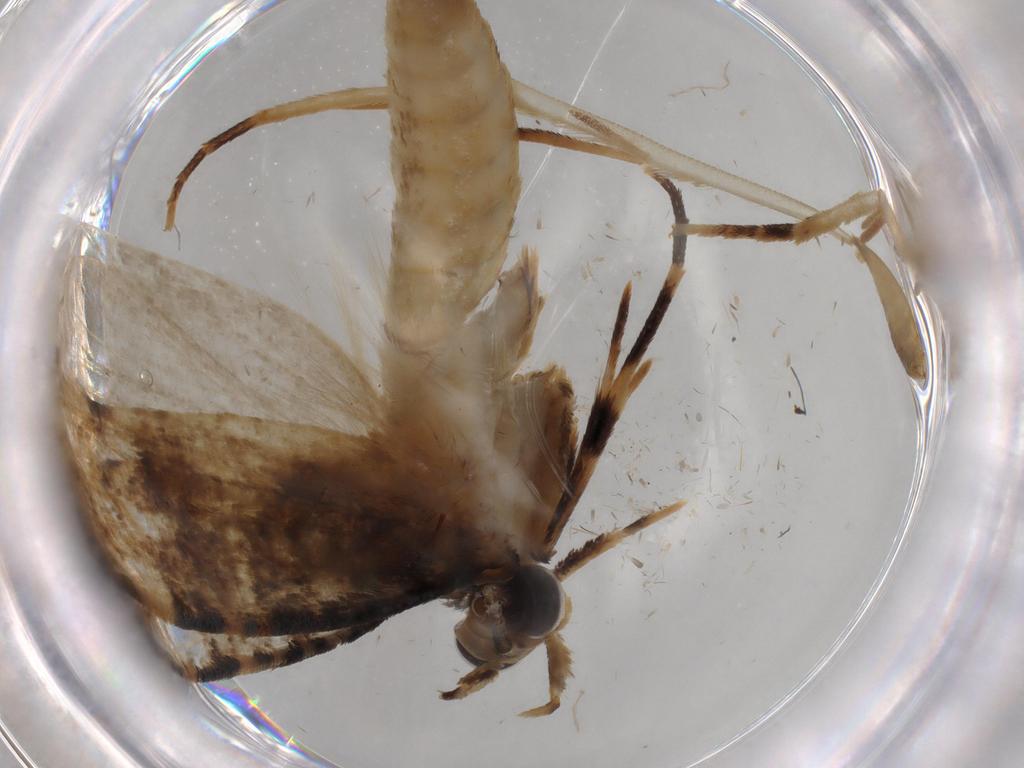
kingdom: Animalia
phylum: Arthropoda
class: Insecta
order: Lepidoptera
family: Tineidae
